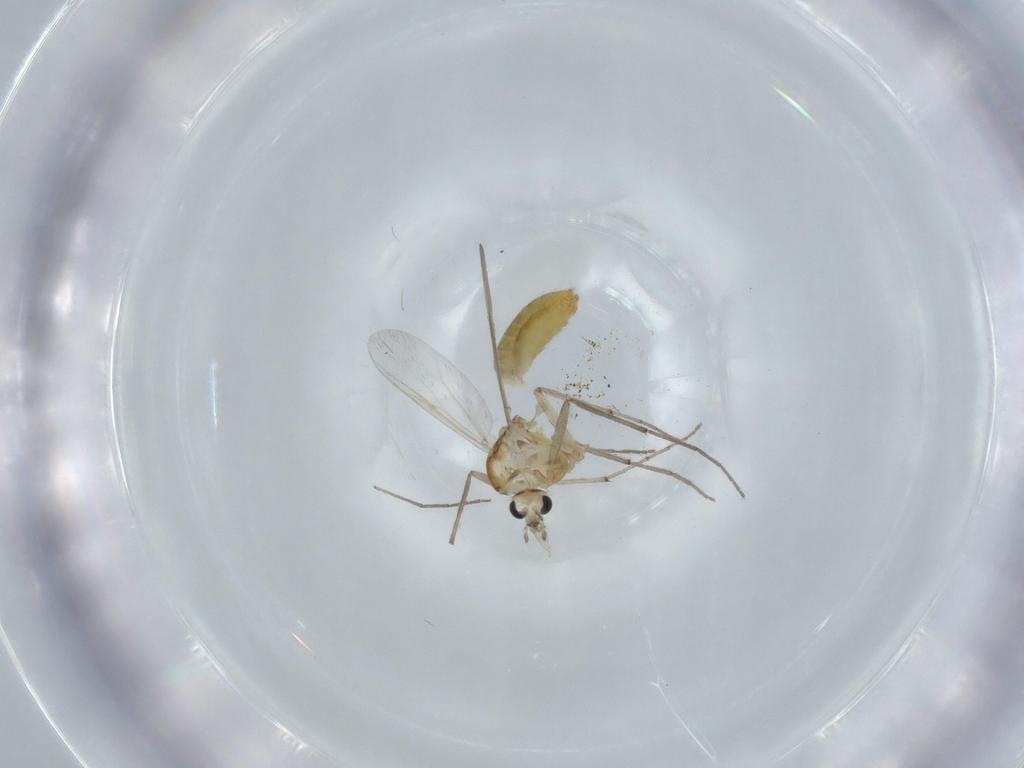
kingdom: Animalia
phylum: Arthropoda
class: Insecta
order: Diptera
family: Chironomidae
